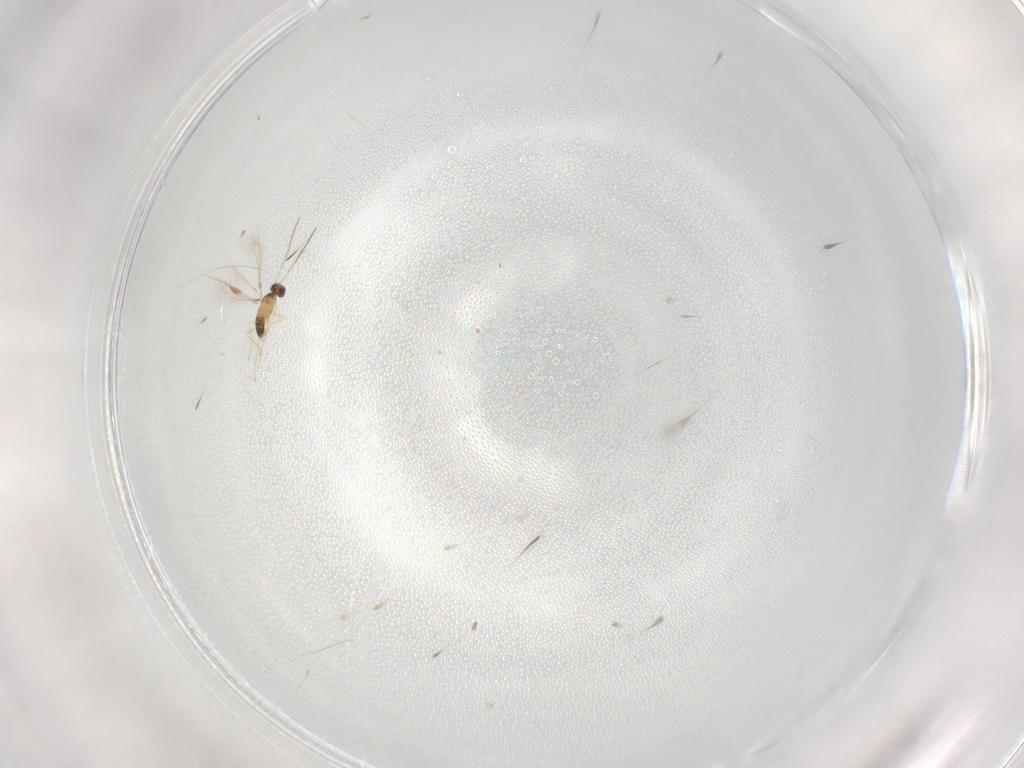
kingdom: Animalia
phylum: Arthropoda
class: Insecta
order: Hymenoptera
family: Mymaridae
